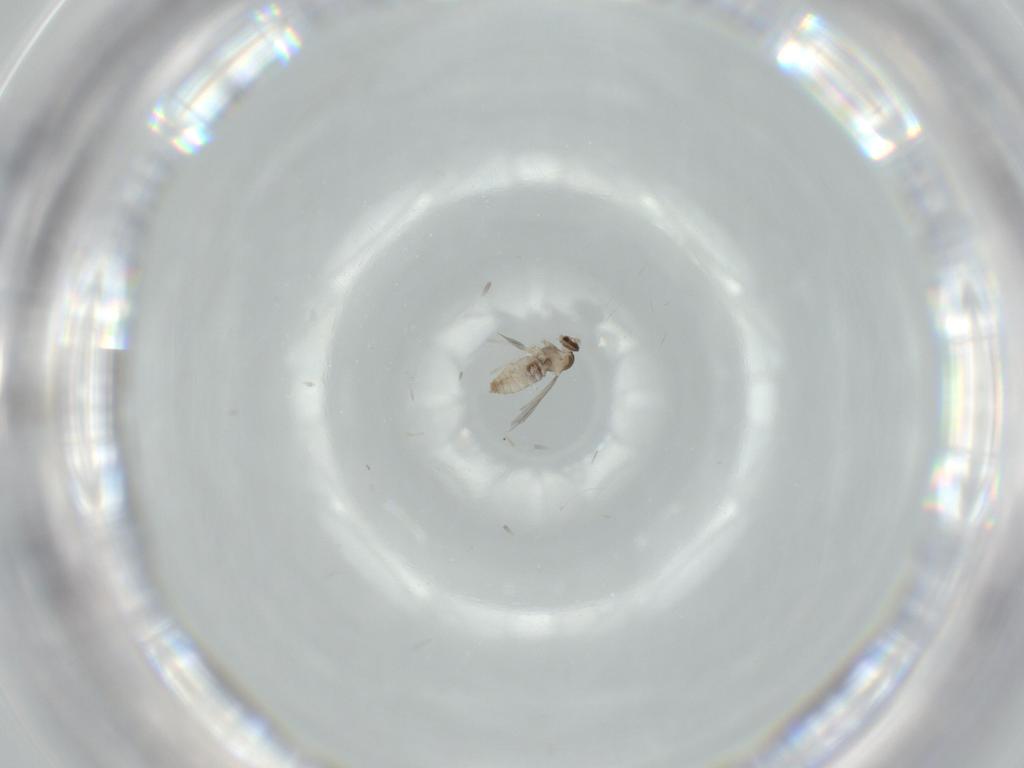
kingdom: Animalia
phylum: Arthropoda
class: Insecta
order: Diptera
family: Cecidomyiidae
